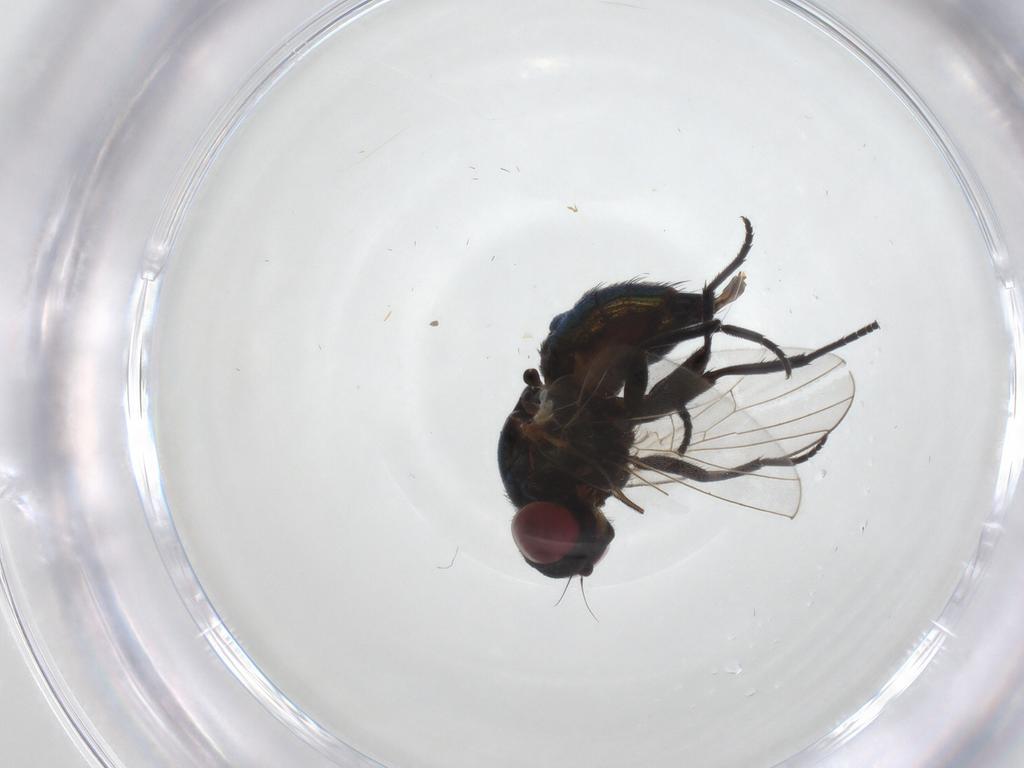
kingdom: Animalia
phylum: Arthropoda
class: Insecta
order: Diptera
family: Agromyzidae
